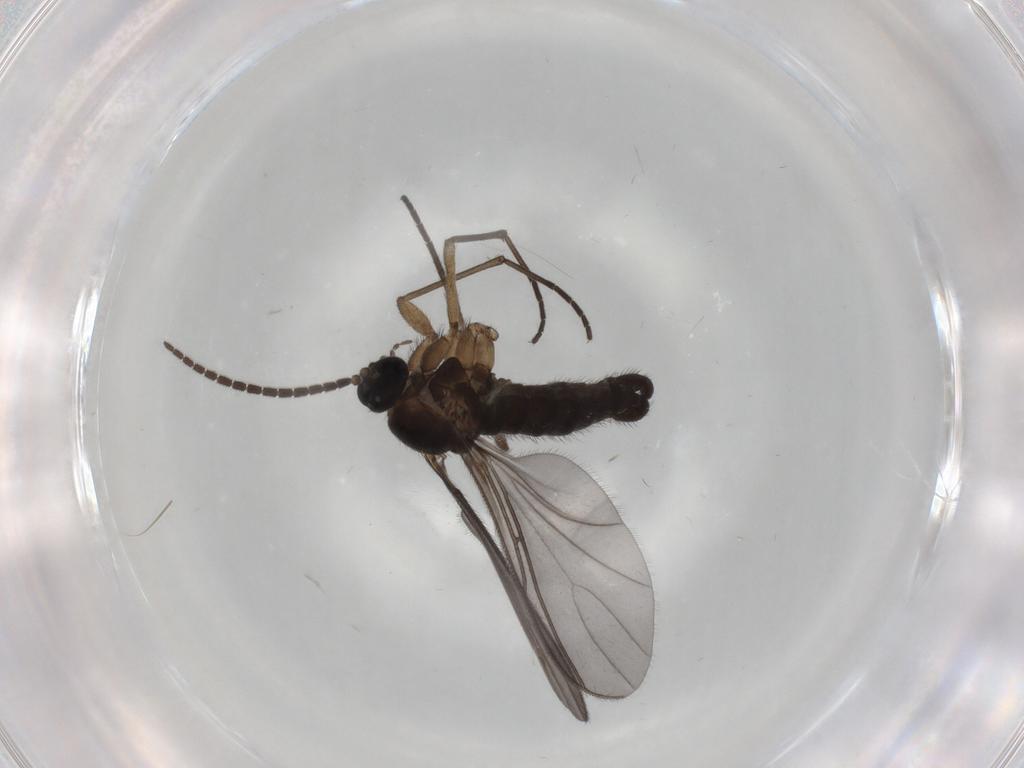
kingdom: Animalia
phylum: Arthropoda
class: Insecta
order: Diptera
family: Sciaridae
